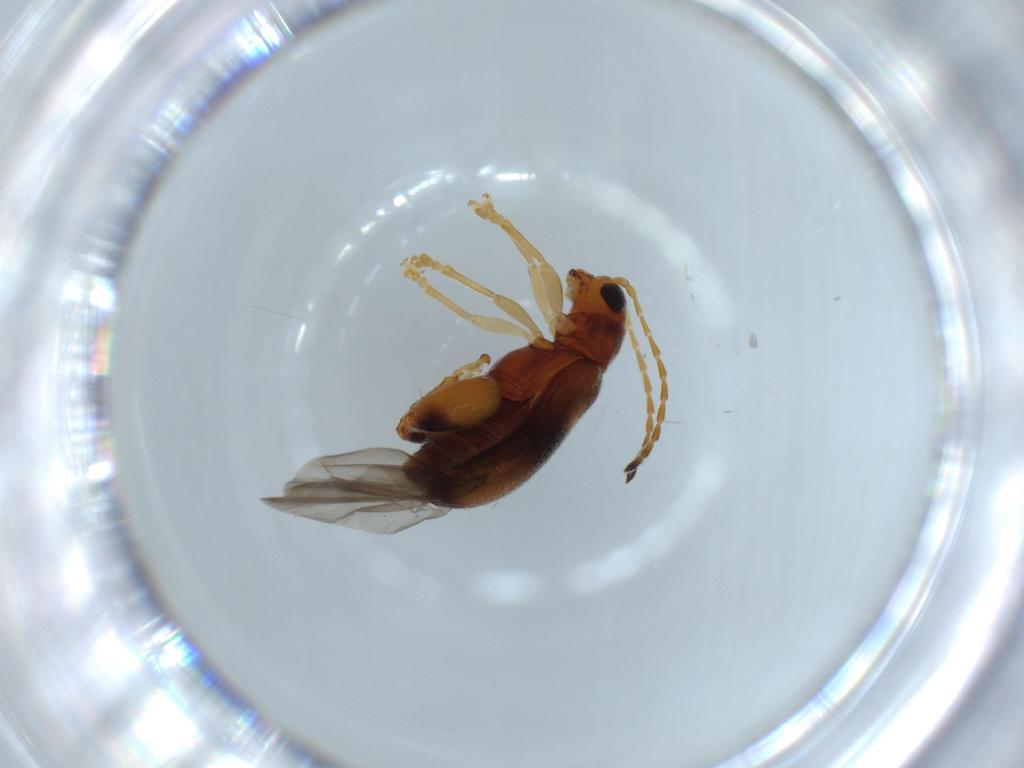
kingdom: Animalia
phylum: Arthropoda
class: Insecta
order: Coleoptera
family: Chrysomelidae
